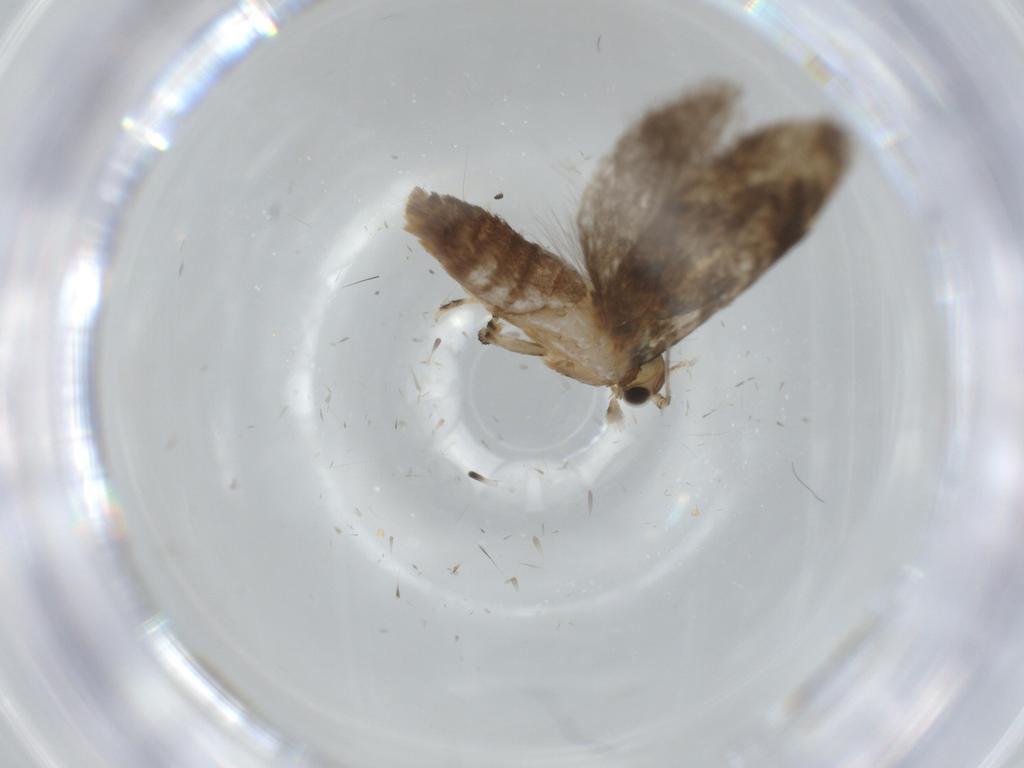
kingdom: Animalia
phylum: Arthropoda
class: Insecta
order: Lepidoptera
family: Tineidae
